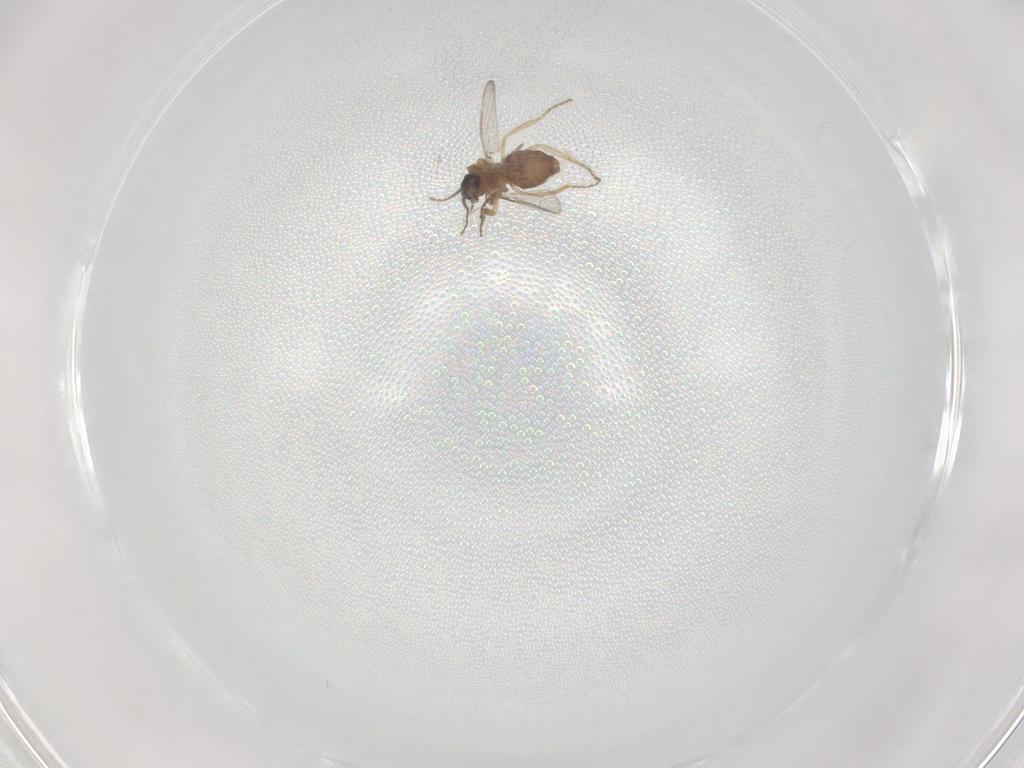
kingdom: Animalia
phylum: Arthropoda
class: Insecta
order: Diptera
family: Ceratopogonidae
